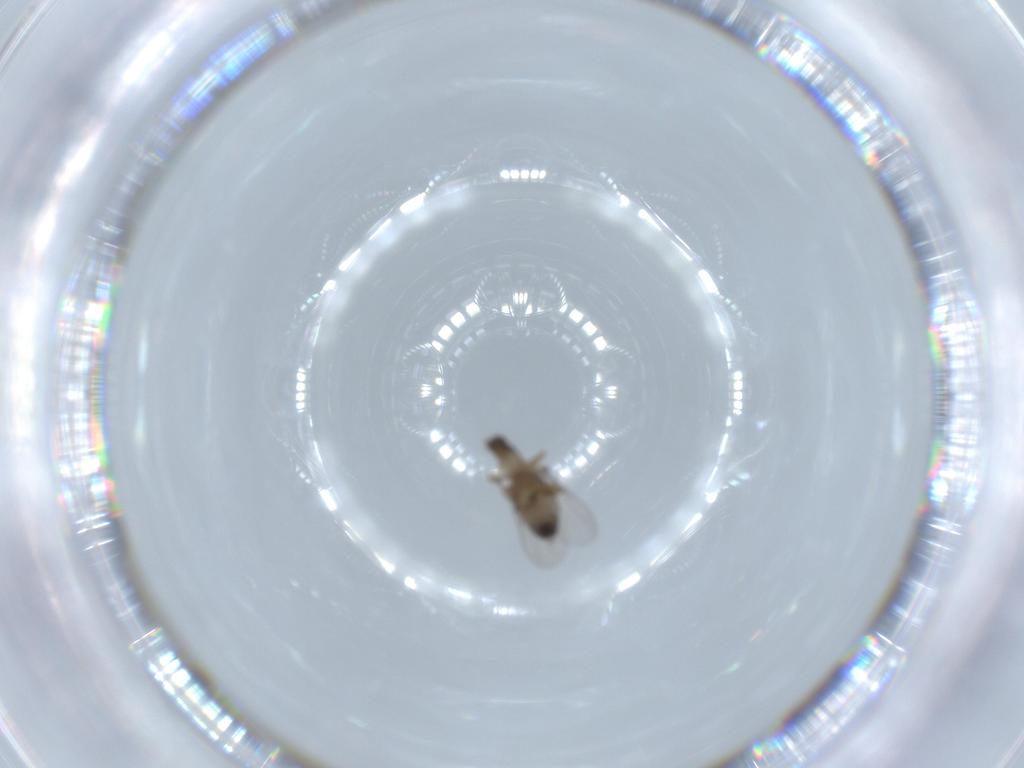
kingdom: Animalia
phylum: Arthropoda
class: Insecta
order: Diptera
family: Phoridae
